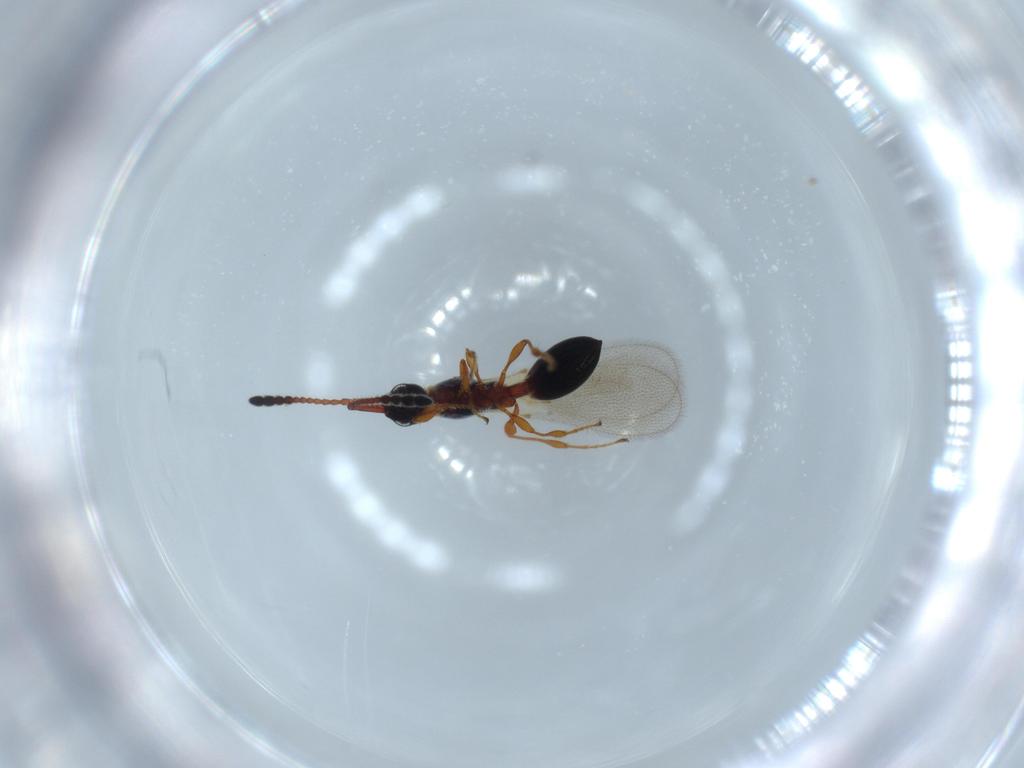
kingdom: Animalia
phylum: Arthropoda
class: Insecta
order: Hymenoptera
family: Diapriidae
